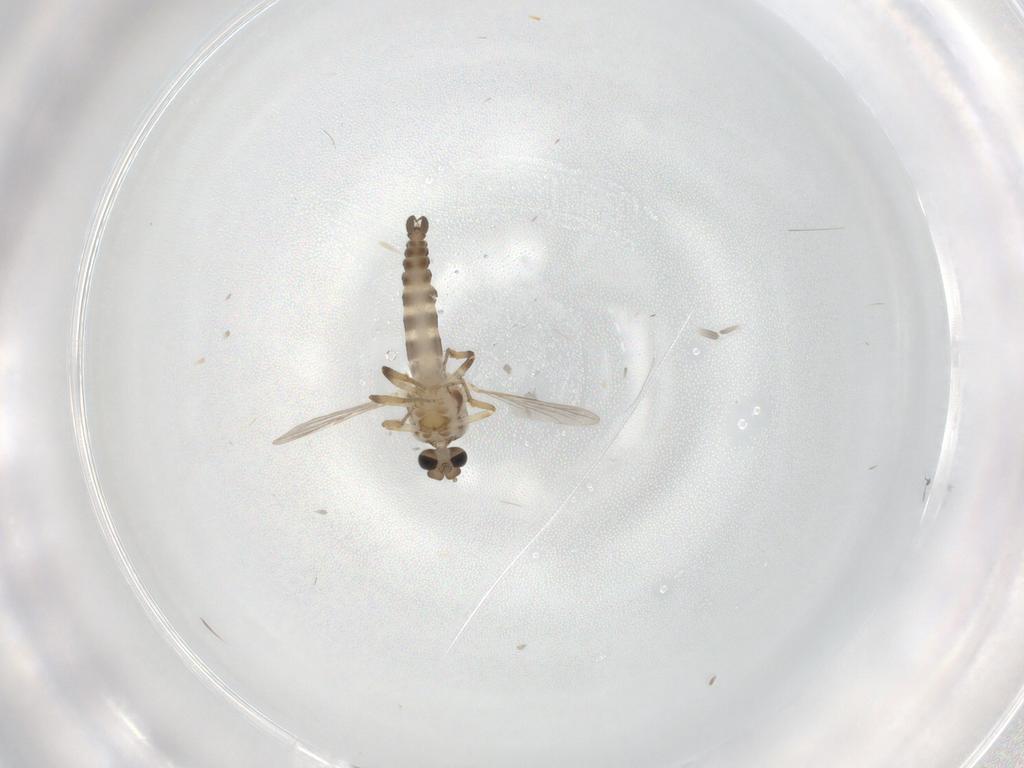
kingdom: Animalia
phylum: Arthropoda
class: Insecta
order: Diptera
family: Ceratopogonidae
